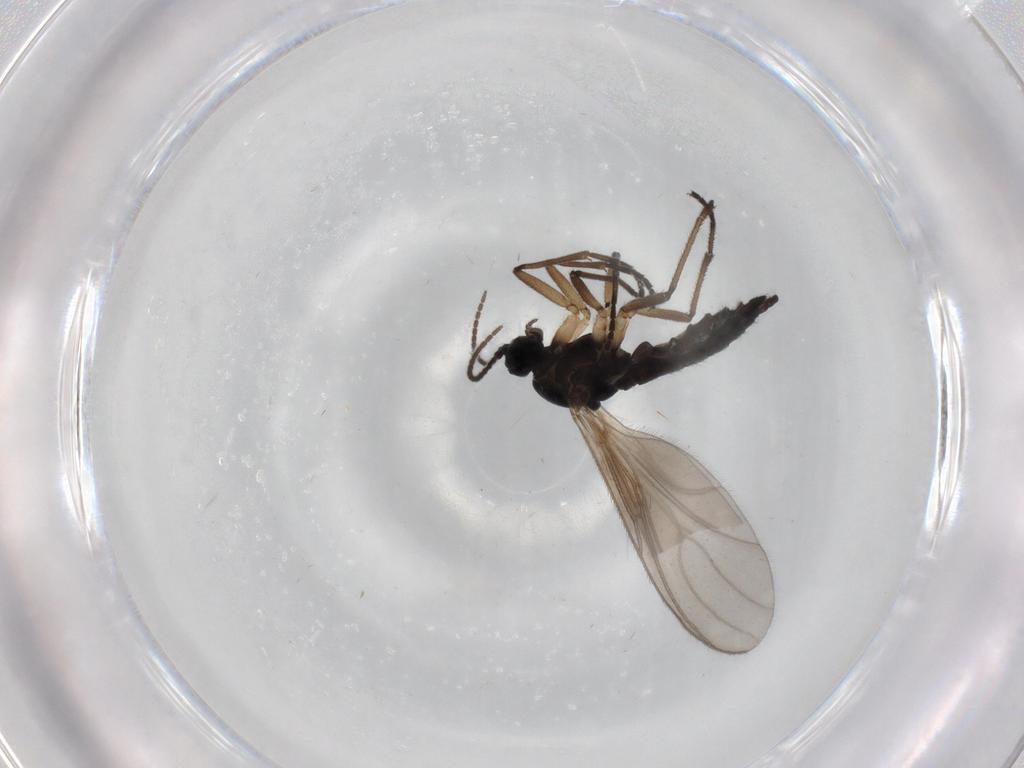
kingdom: Animalia
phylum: Arthropoda
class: Insecta
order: Diptera
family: Sciaridae
